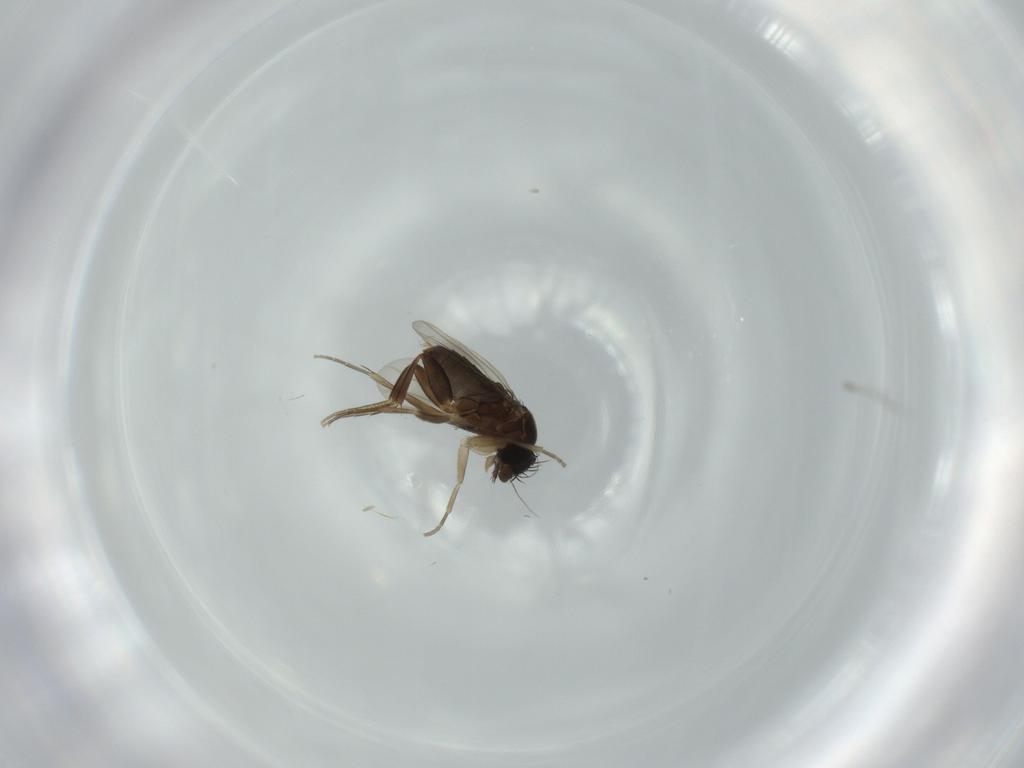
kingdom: Animalia
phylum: Arthropoda
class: Insecta
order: Diptera
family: Phoridae
